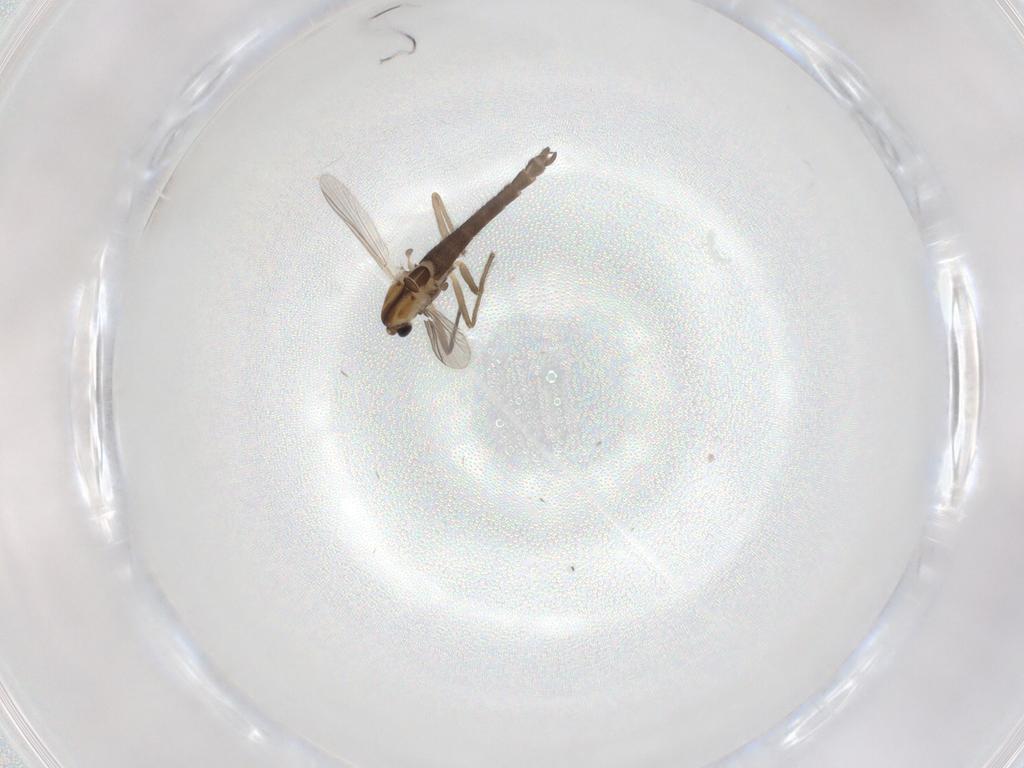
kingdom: Animalia
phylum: Arthropoda
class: Insecta
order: Diptera
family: Chironomidae
